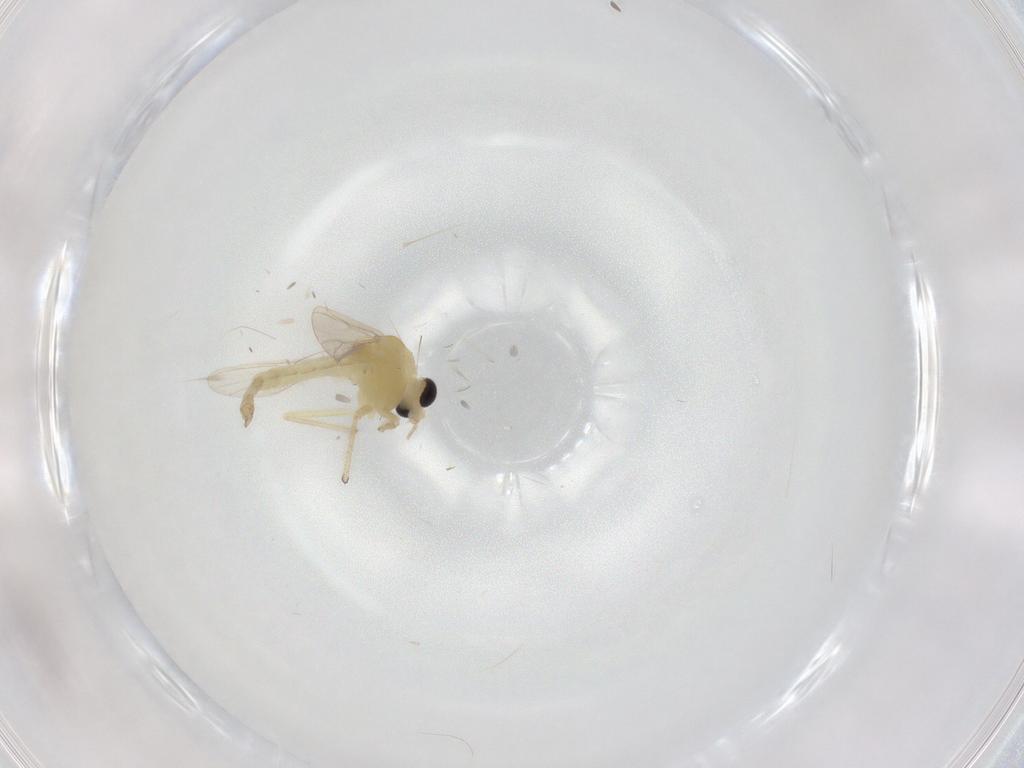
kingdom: Animalia
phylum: Arthropoda
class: Insecta
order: Diptera
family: Chironomidae
